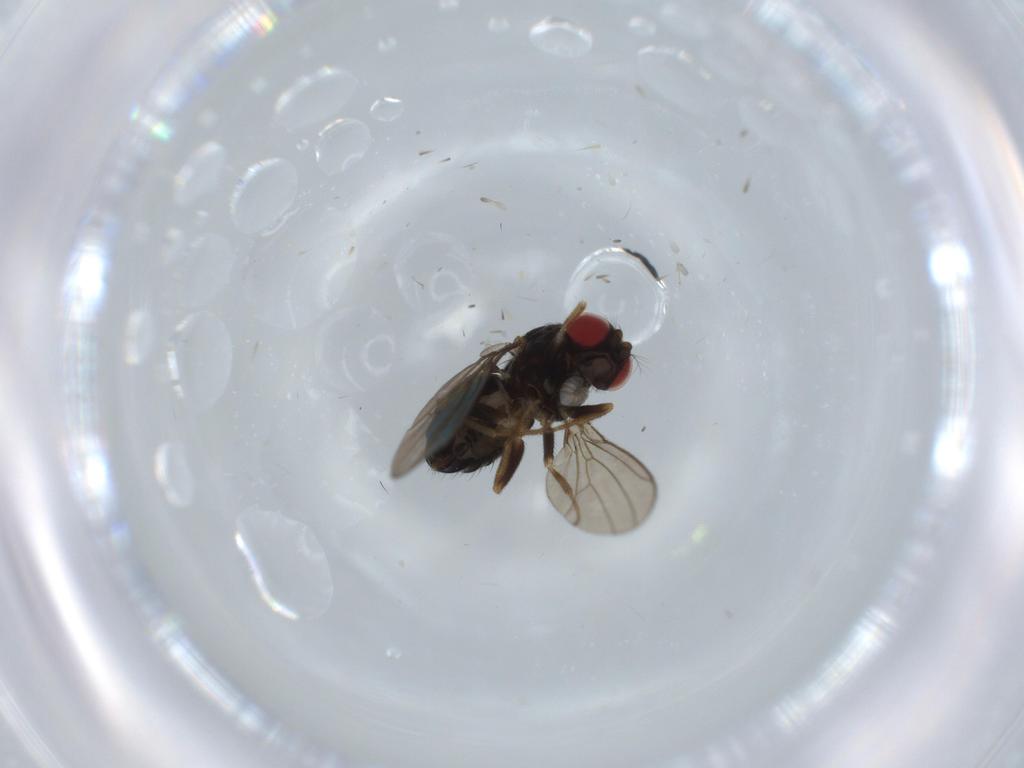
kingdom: Animalia
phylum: Arthropoda
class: Insecta
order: Diptera
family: Drosophilidae
